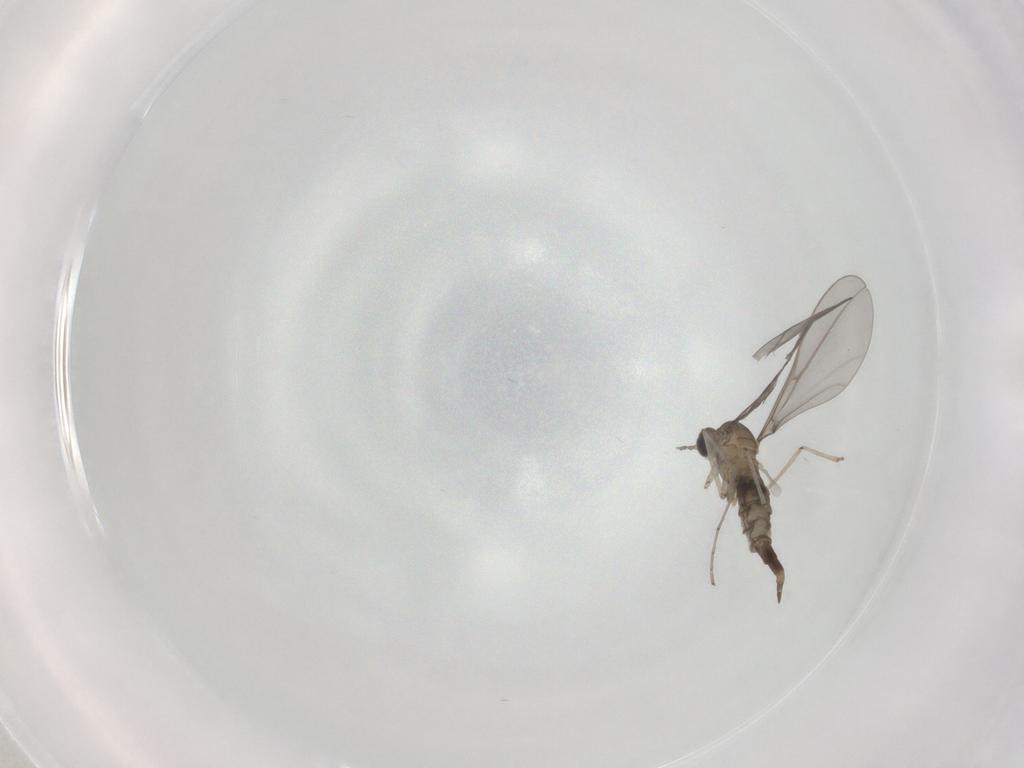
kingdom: Animalia
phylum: Arthropoda
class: Insecta
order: Diptera
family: Cecidomyiidae
